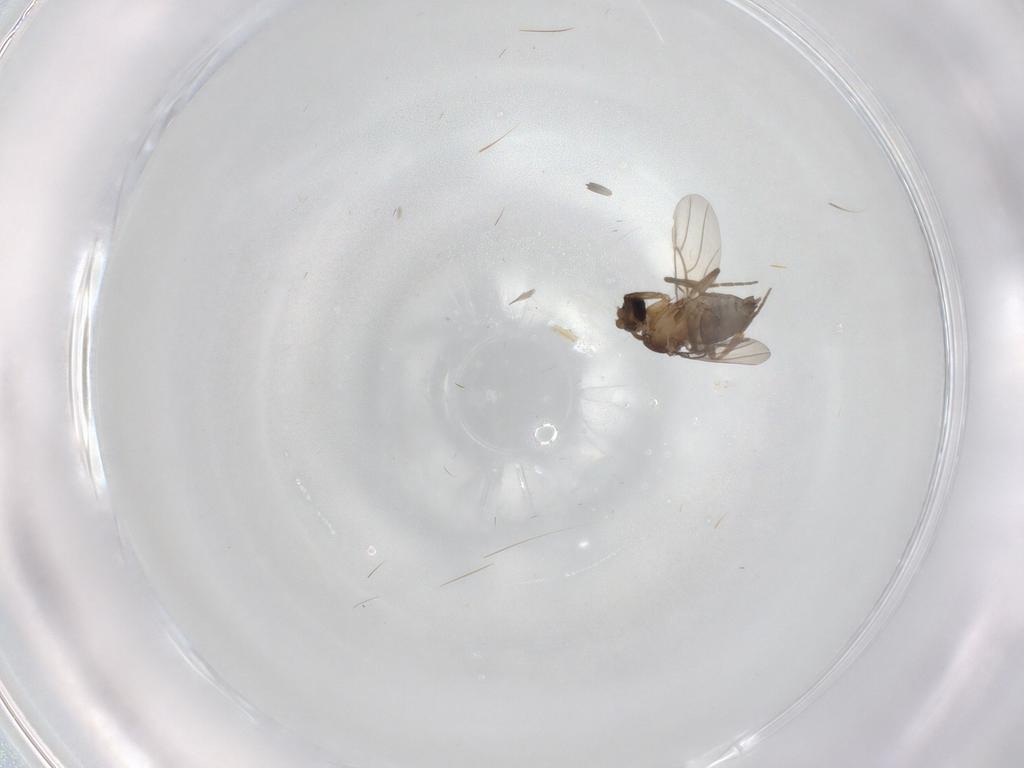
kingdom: Animalia
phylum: Arthropoda
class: Insecta
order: Diptera
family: Phoridae
